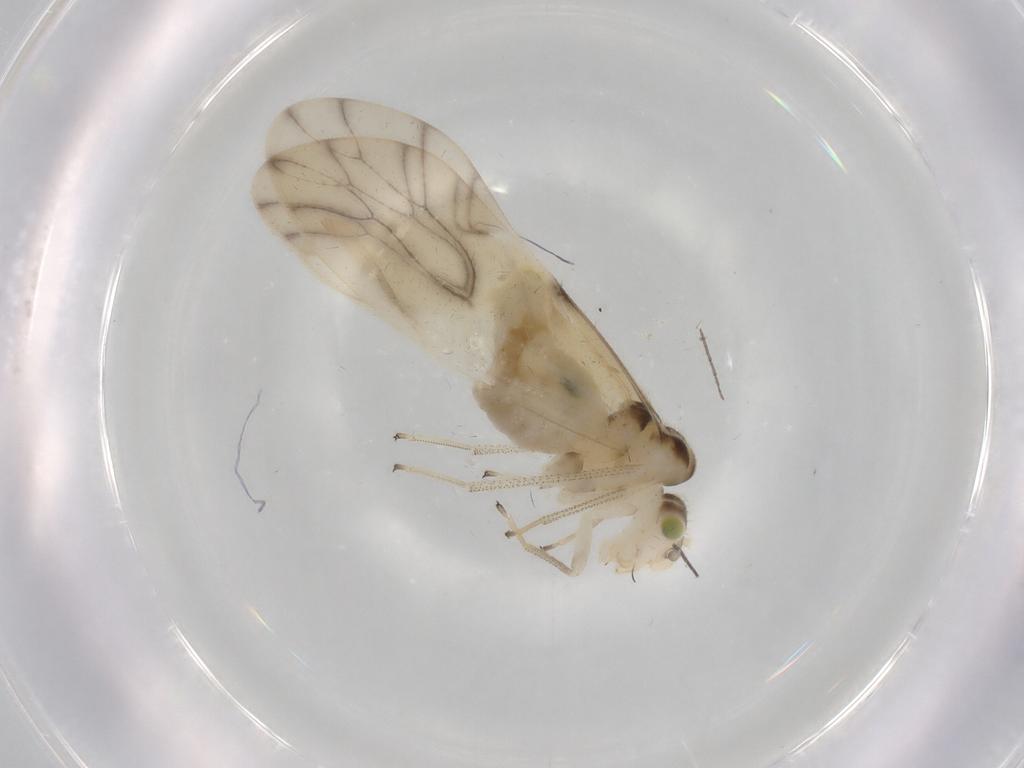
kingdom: Animalia
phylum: Arthropoda
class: Insecta
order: Psocodea
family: Caeciliusidae
